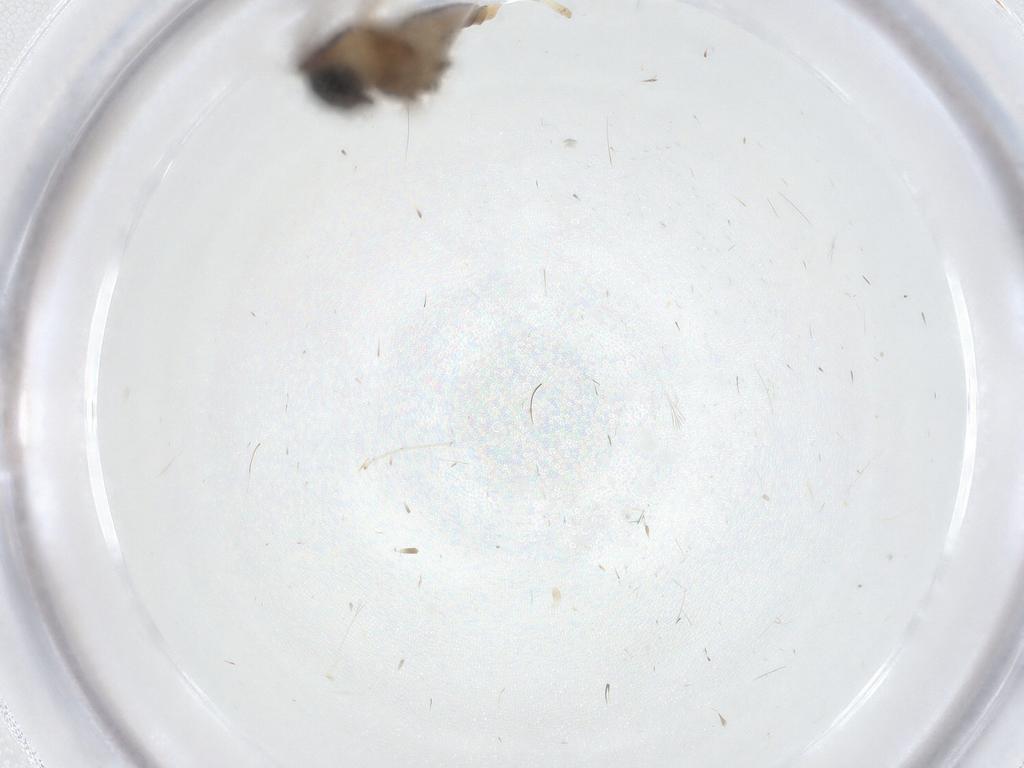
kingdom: Animalia
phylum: Arthropoda
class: Insecta
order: Diptera
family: Cecidomyiidae
